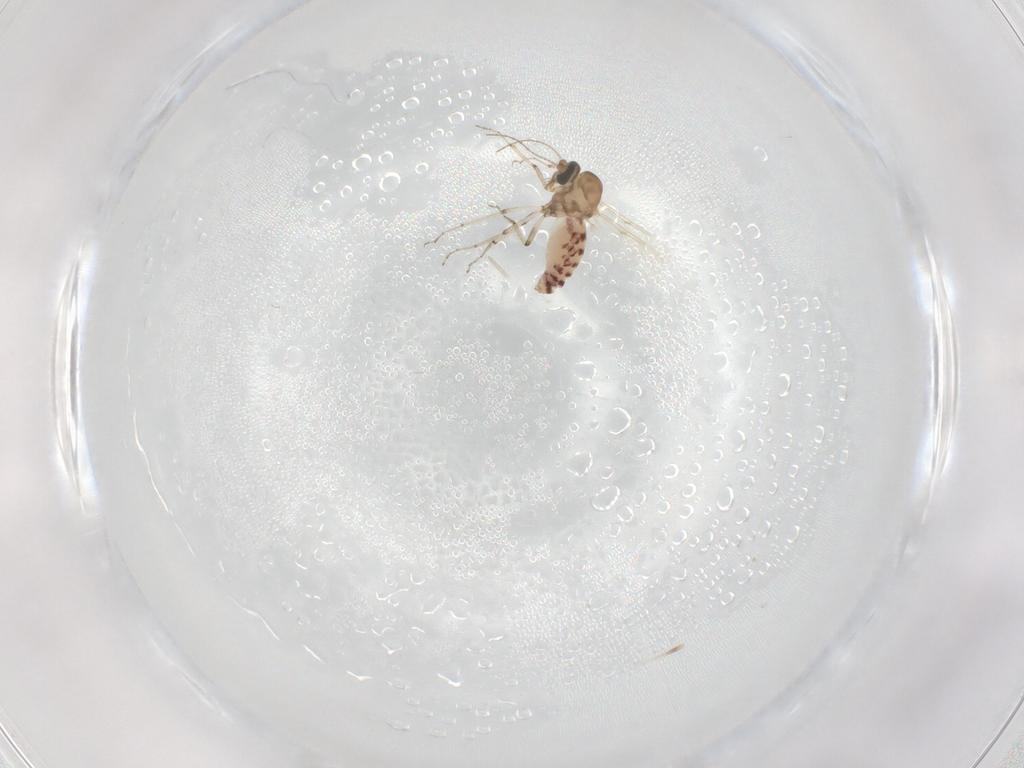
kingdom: Animalia
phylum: Arthropoda
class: Insecta
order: Diptera
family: Ceratopogonidae
